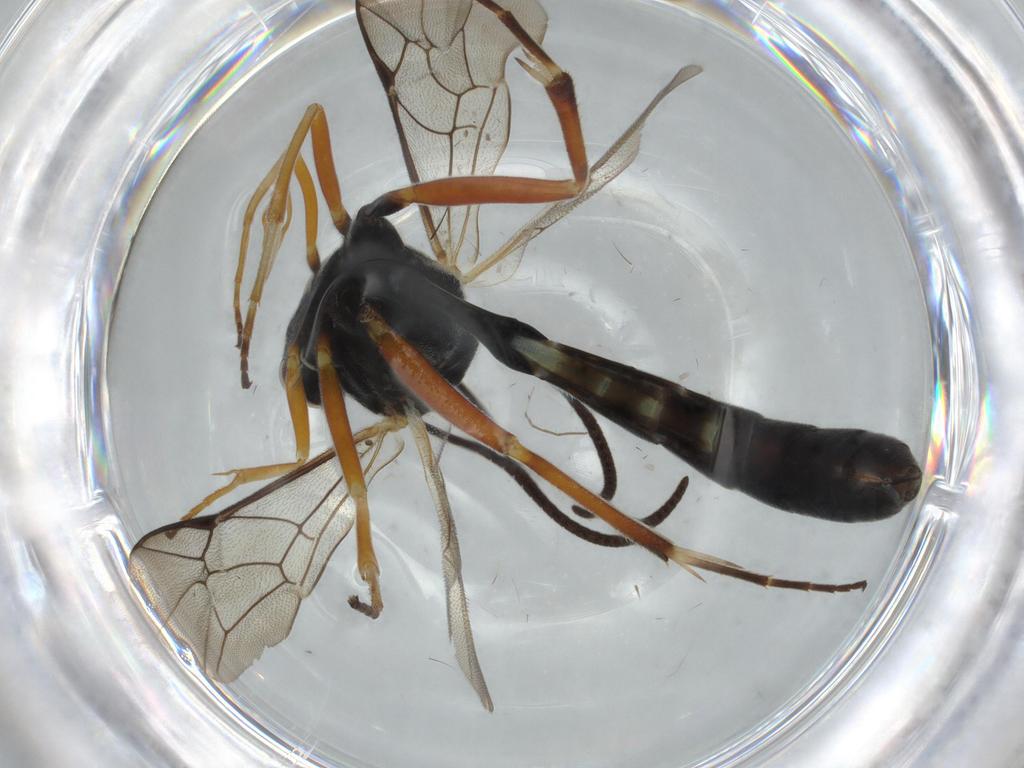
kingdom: Animalia
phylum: Arthropoda
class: Insecta
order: Hymenoptera
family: Ichneumonidae
